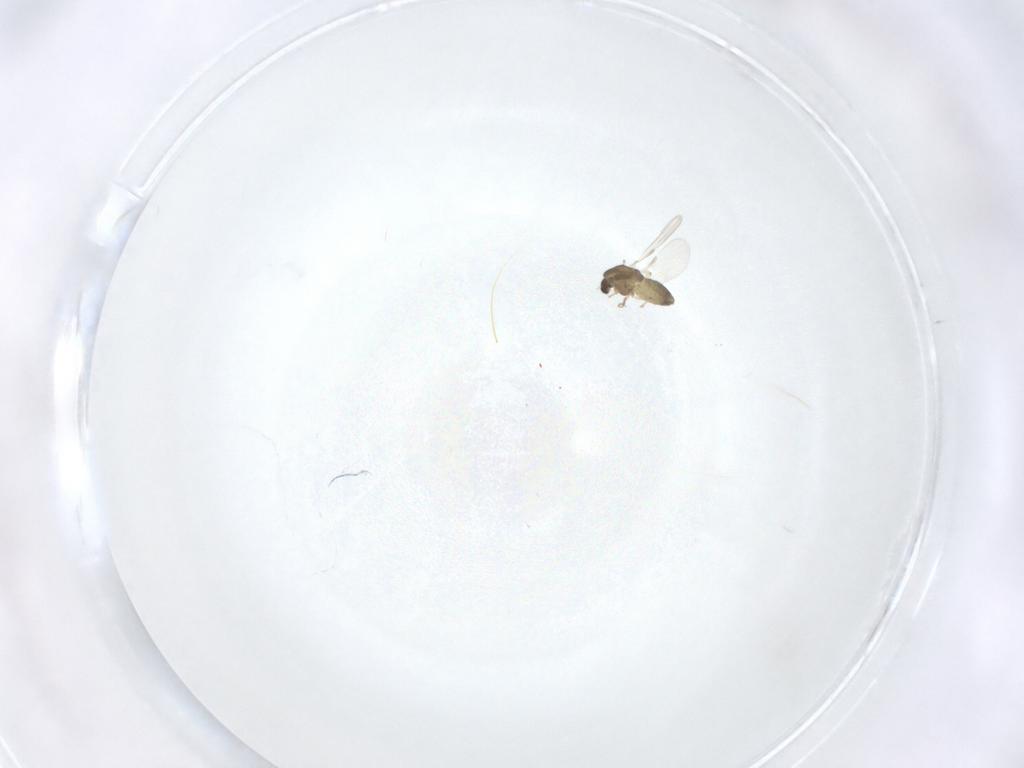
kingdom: Animalia
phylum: Arthropoda
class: Insecta
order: Diptera
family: Chironomidae
